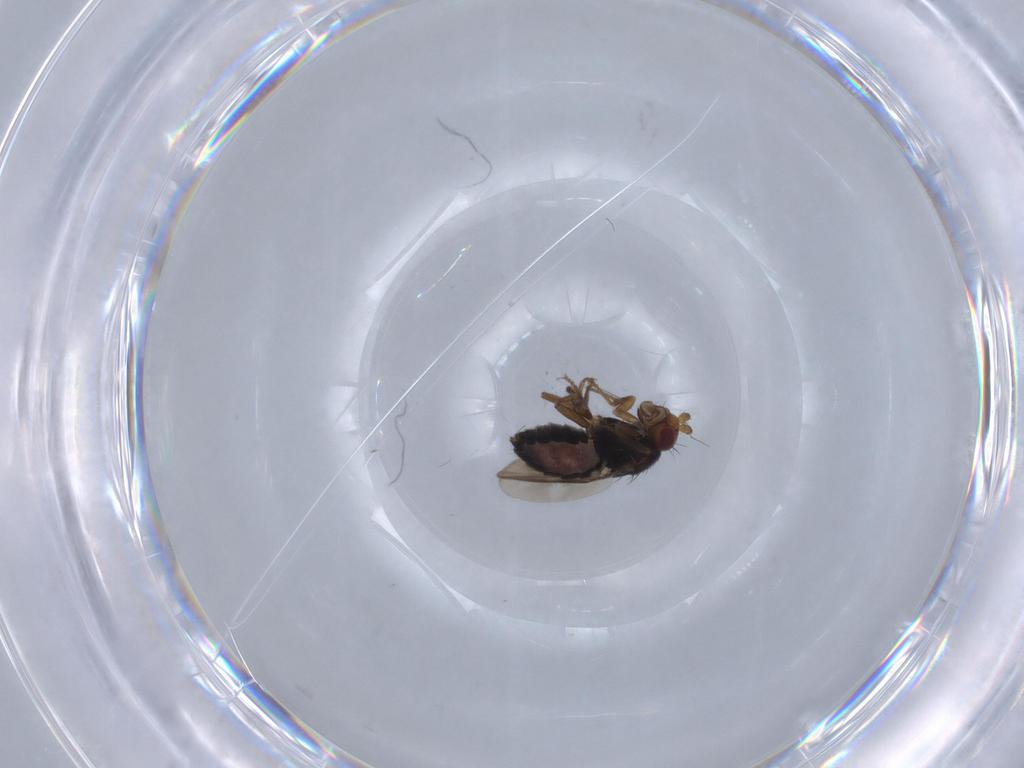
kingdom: Animalia
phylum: Arthropoda
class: Insecta
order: Diptera
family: Sphaeroceridae
